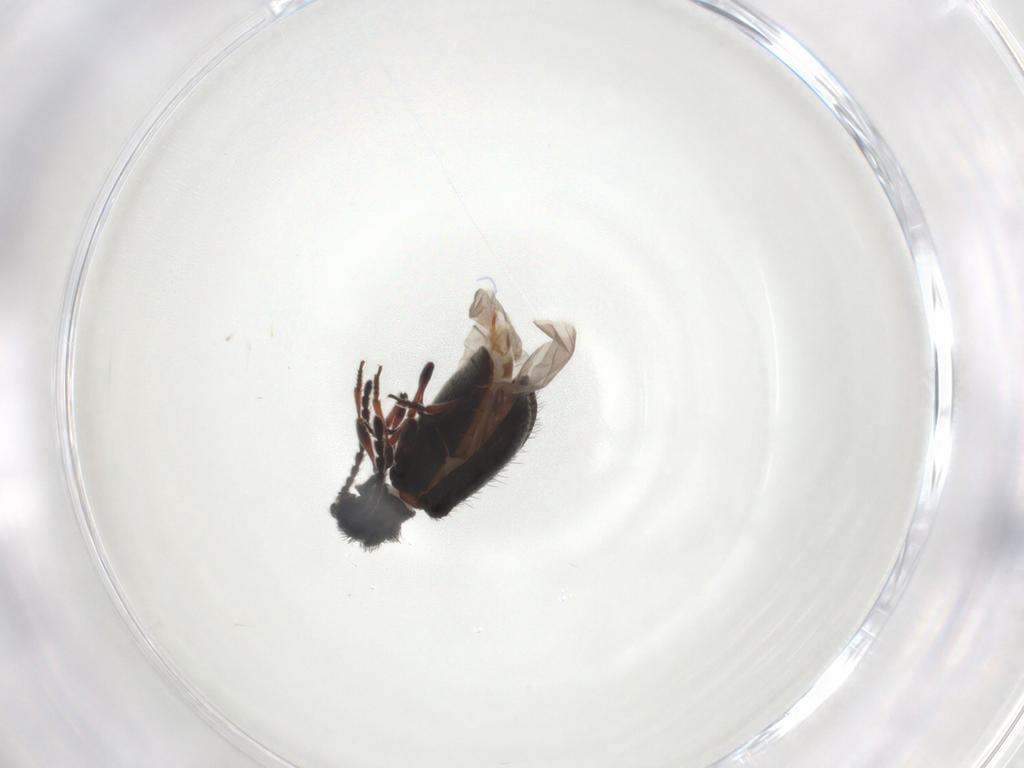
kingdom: Animalia
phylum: Arthropoda
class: Insecta
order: Coleoptera
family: Ptinidae
